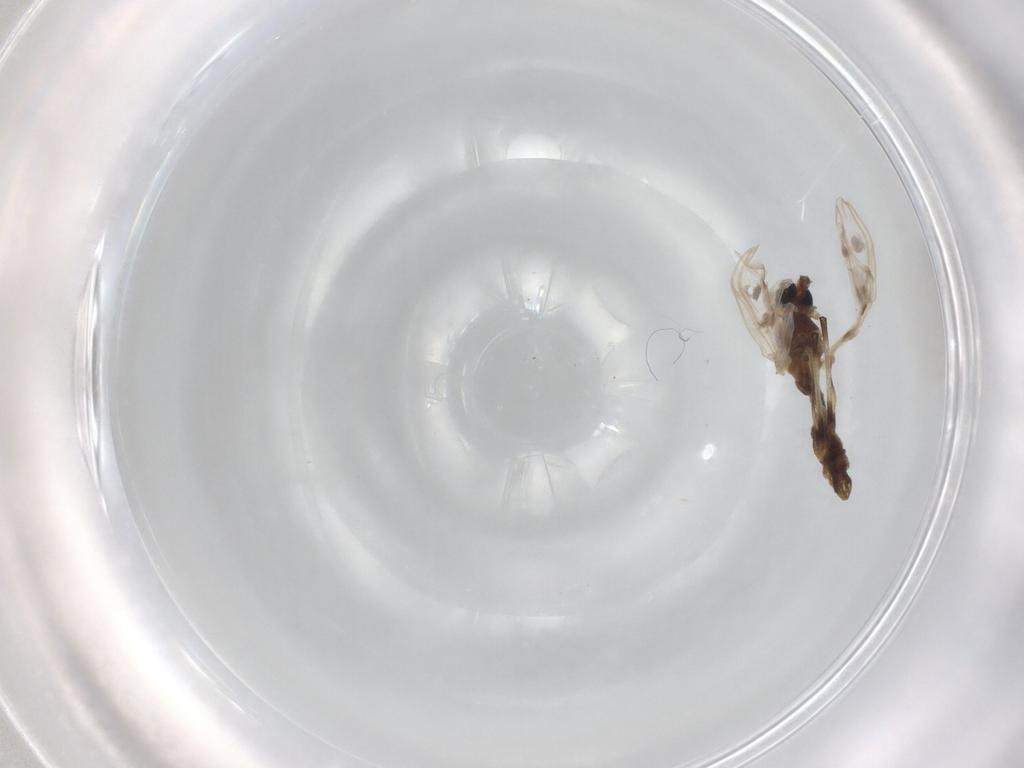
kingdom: Animalia
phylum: Arthropoda
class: Insecta
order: Diptera
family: Chironomidae
